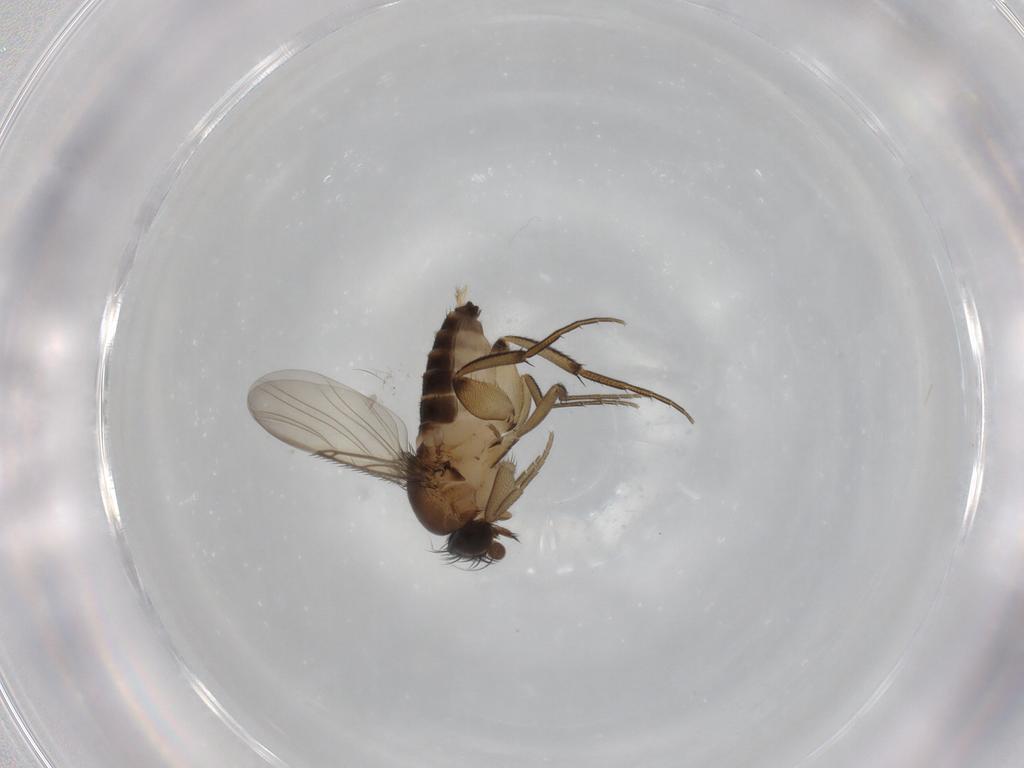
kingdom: Animalia
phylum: Arthropoda
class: Insecta
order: Diptera
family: Phoridae
